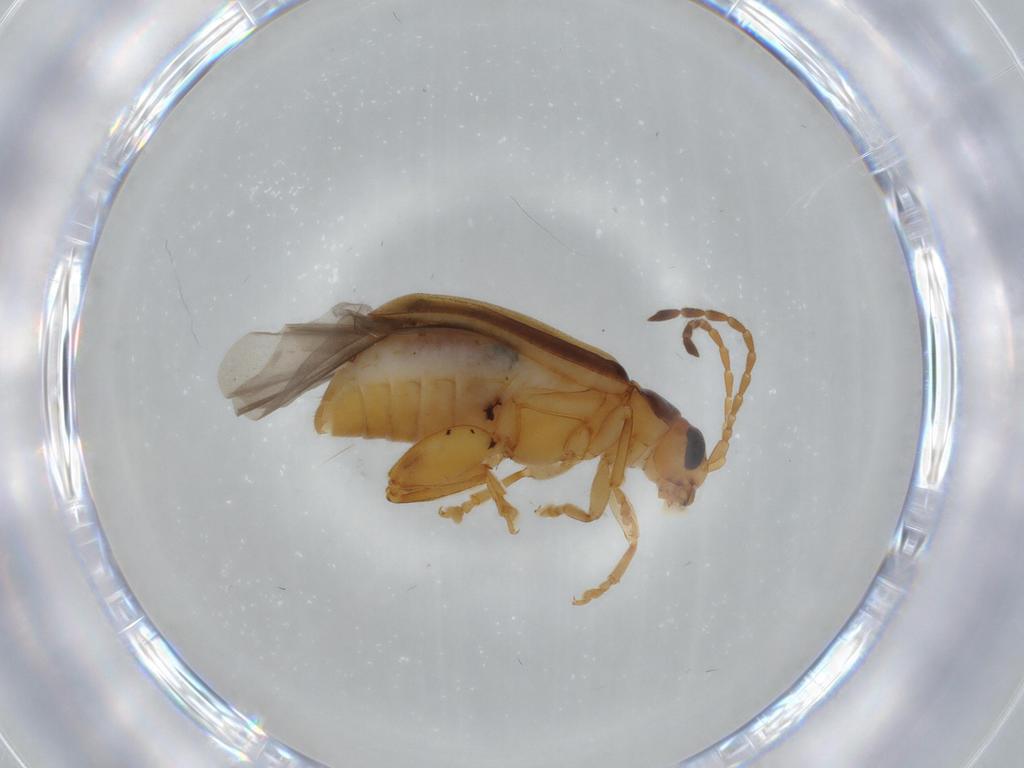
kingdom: Animalia
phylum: Arthropoda
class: Insecta
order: Coleoptera
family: Chrysomelidae
